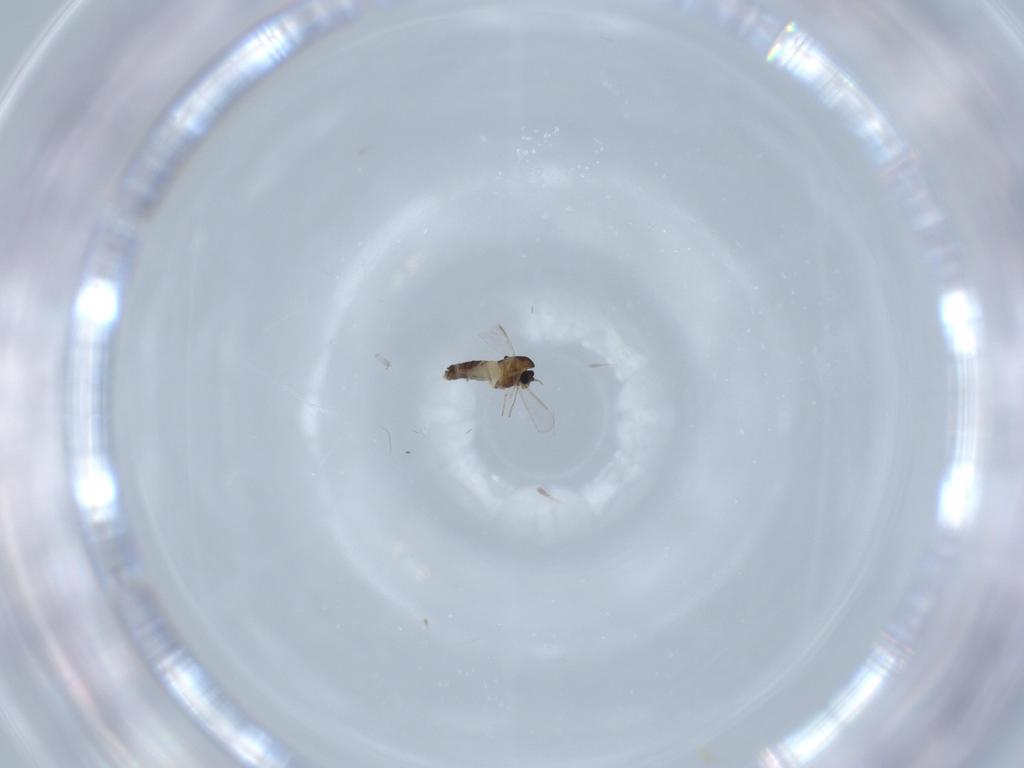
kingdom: Animalia
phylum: Arthropoda
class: Insecta
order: Diptera
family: Chironomidae
